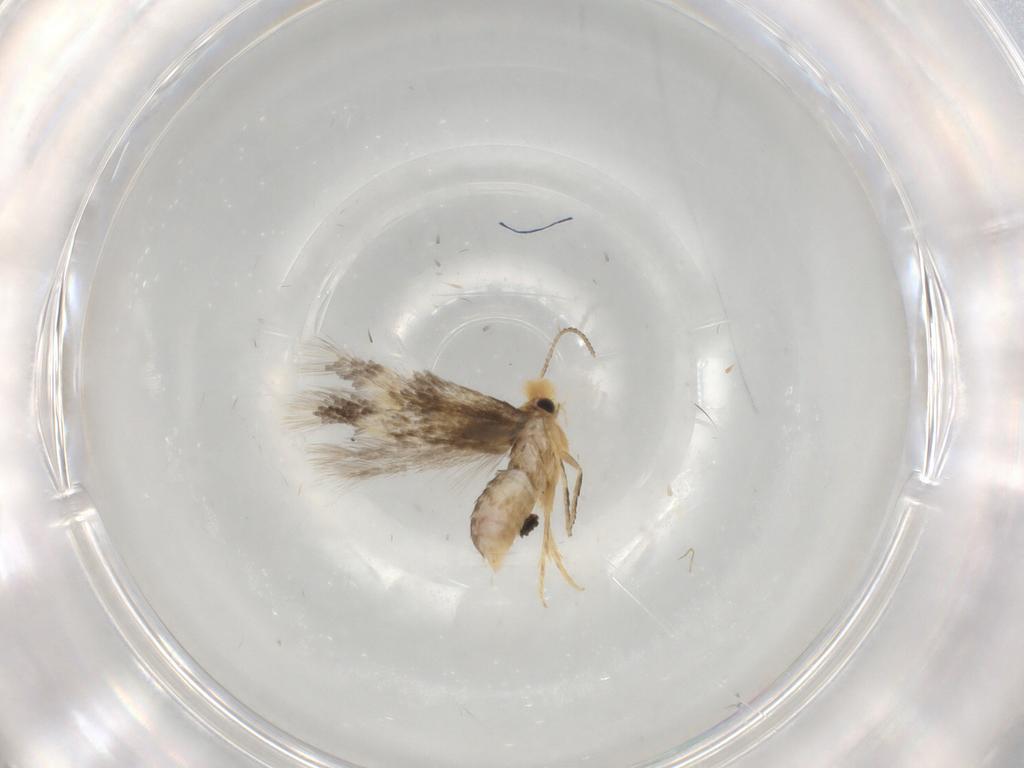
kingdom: Animalia
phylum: Arthropoda
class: Insecta
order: Lepidoptera
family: Nepticulidae
